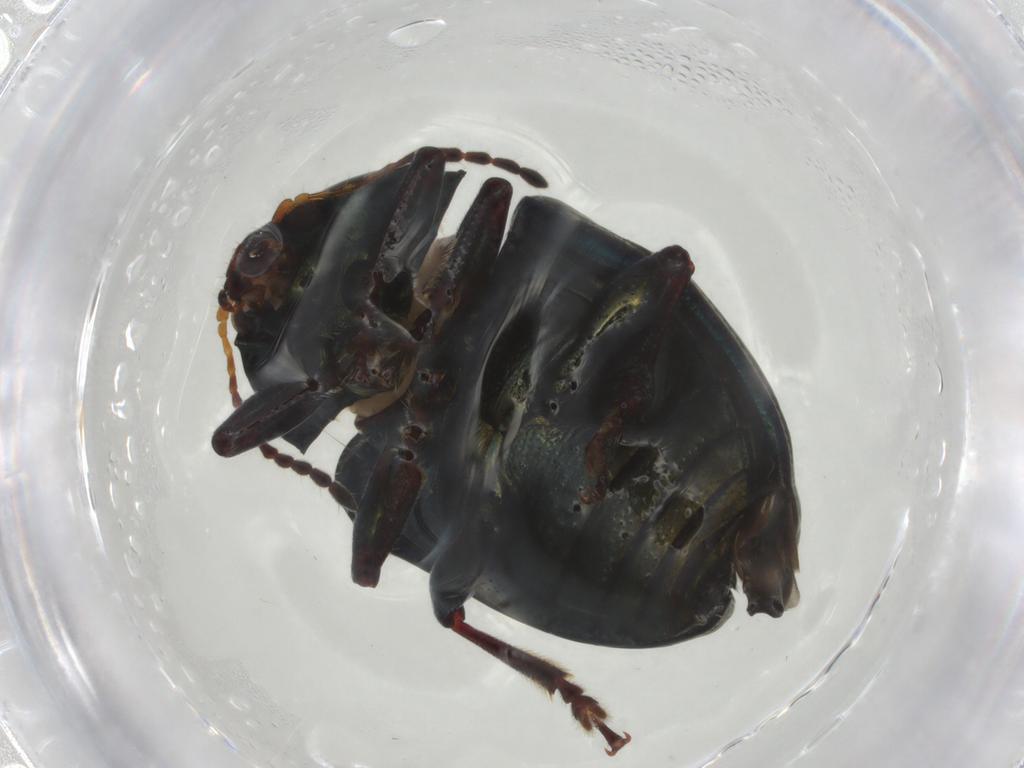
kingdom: Animalia
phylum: Arthropoda
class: Insecta
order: Coleoptera
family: Chrysomelidae
